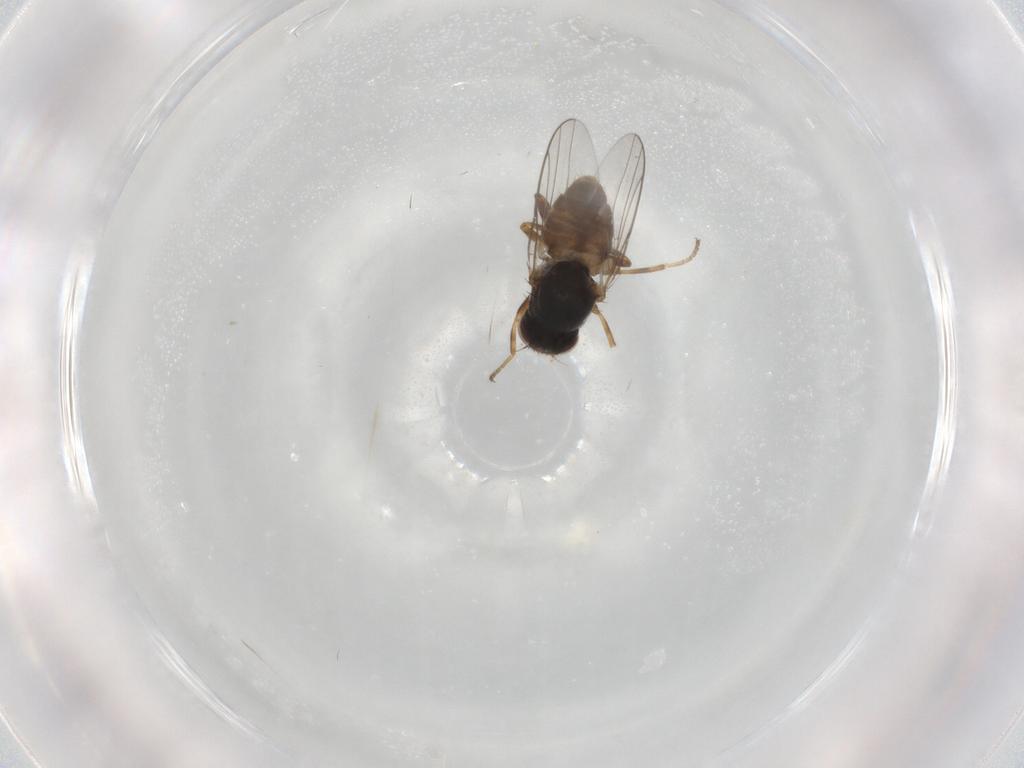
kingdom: Animalia
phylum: Arthropoda
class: Insecta
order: Diptera
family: Chloropidae
